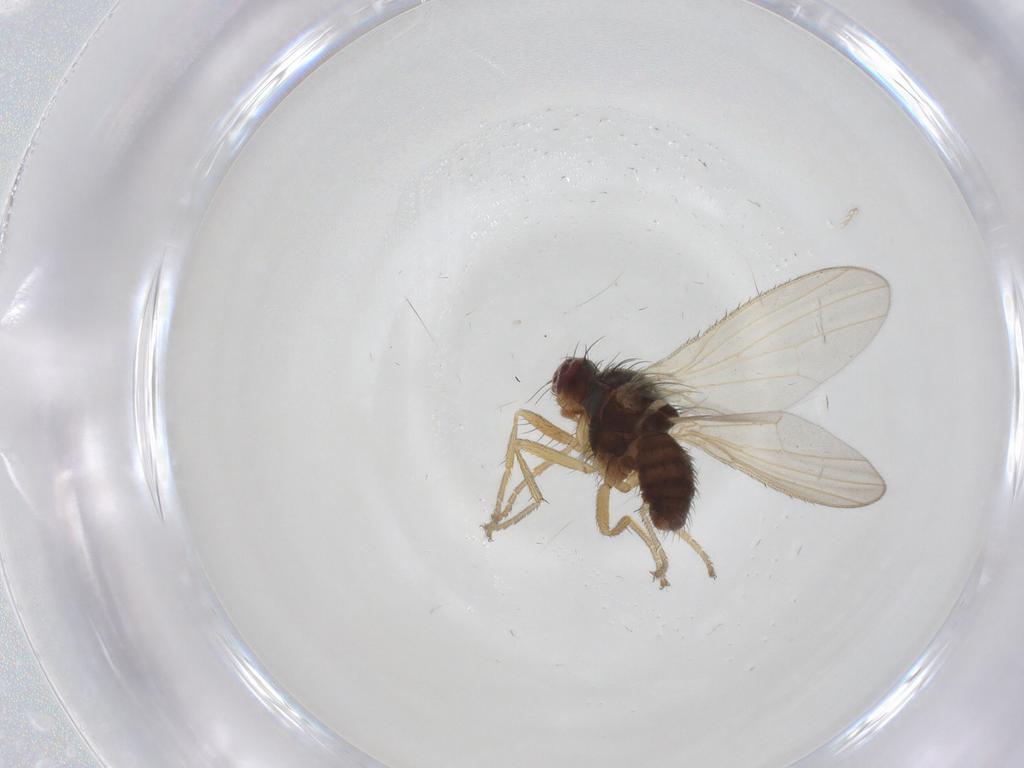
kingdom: Animalia
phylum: Arthropoda
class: Insecta
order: Diptera
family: Heleomyzidae
